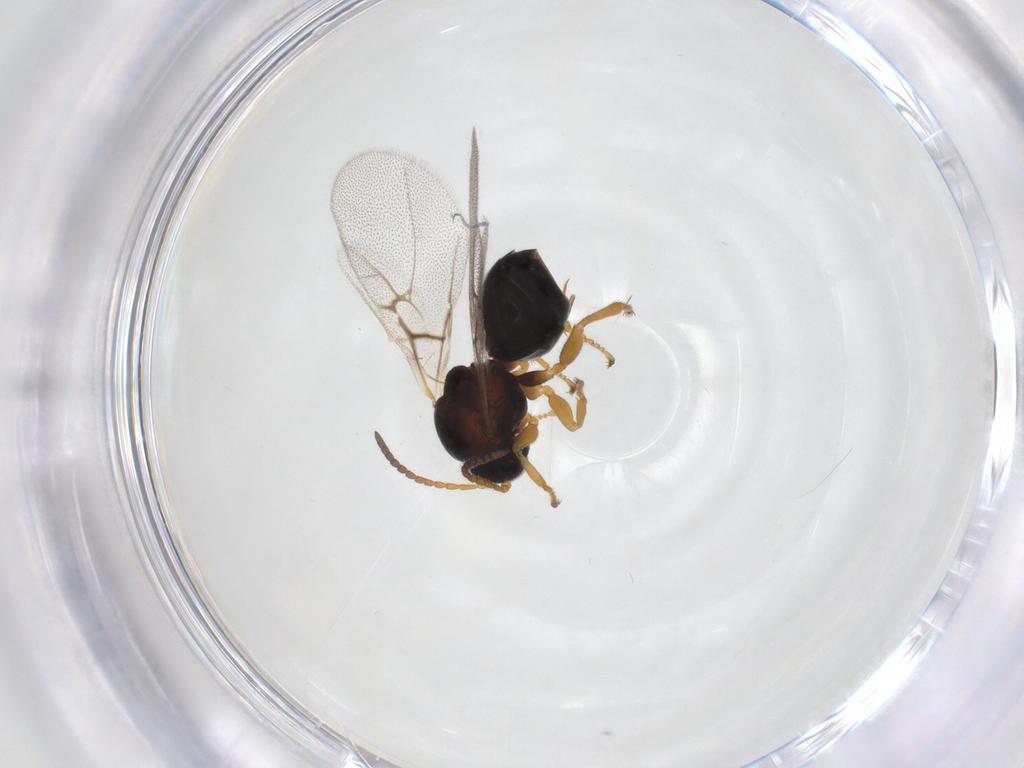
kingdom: Animalia
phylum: Arthropoda
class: Insecta
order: Hymenoptera
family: Cynipidae
